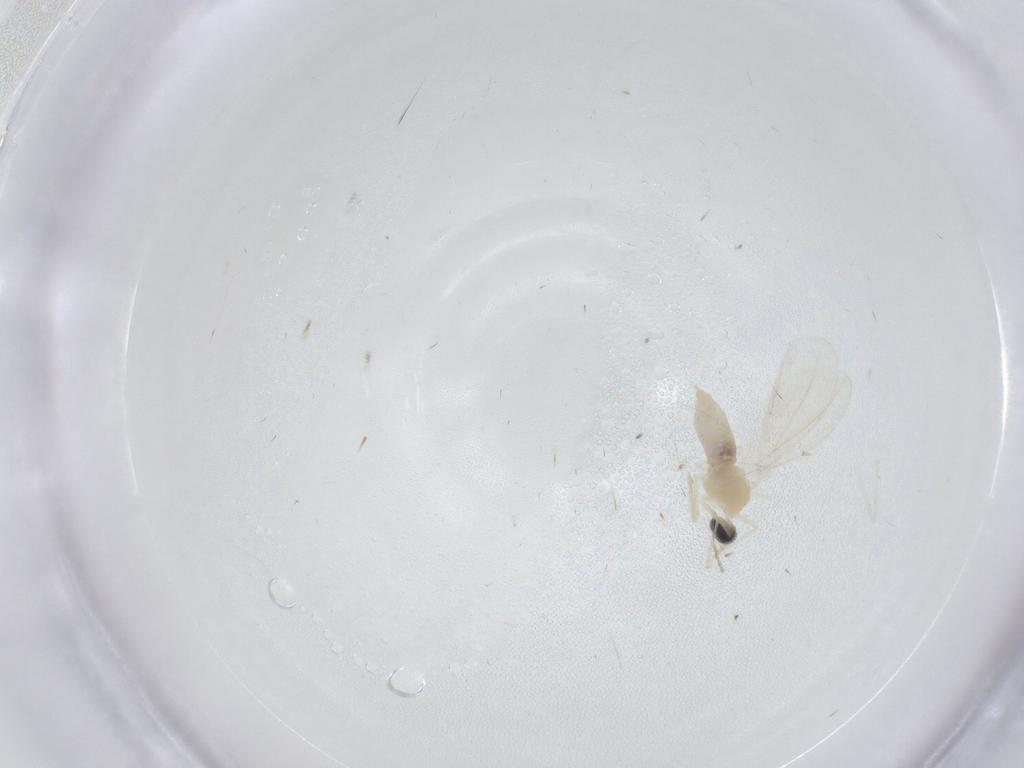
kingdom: Animalia
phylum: Arthropoda
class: Insecta
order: Diptera
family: Cecidomyiidae
